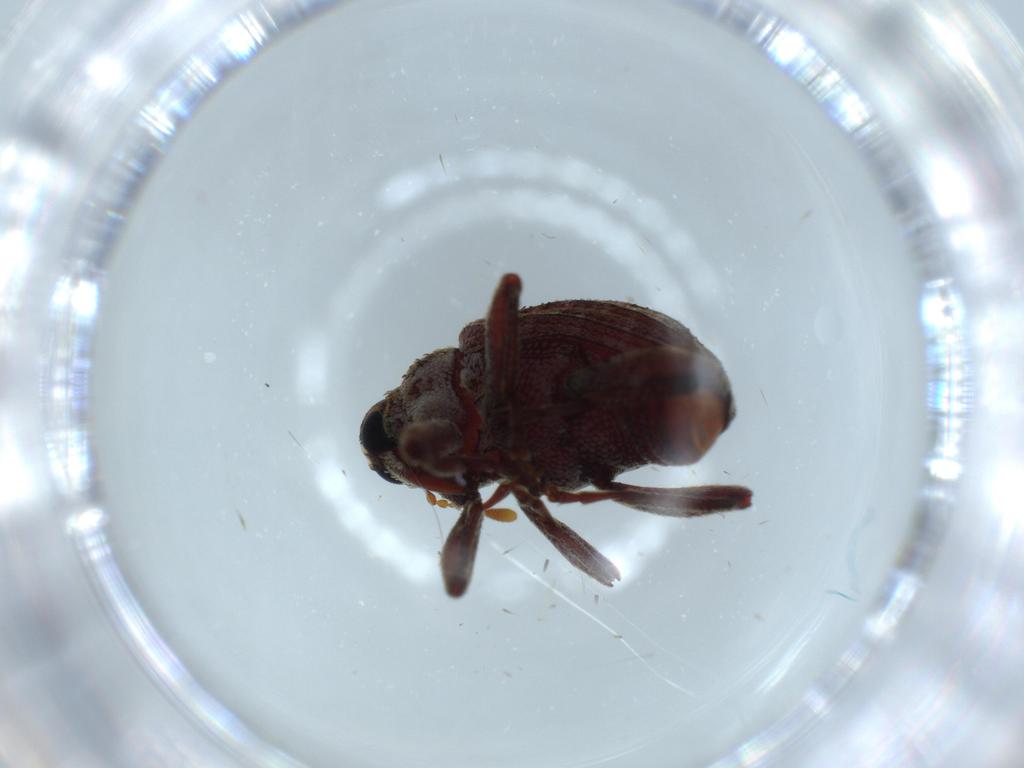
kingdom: Animalia
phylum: Arthropoda
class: Insecta
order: Coleoptera
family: Curculionidae
